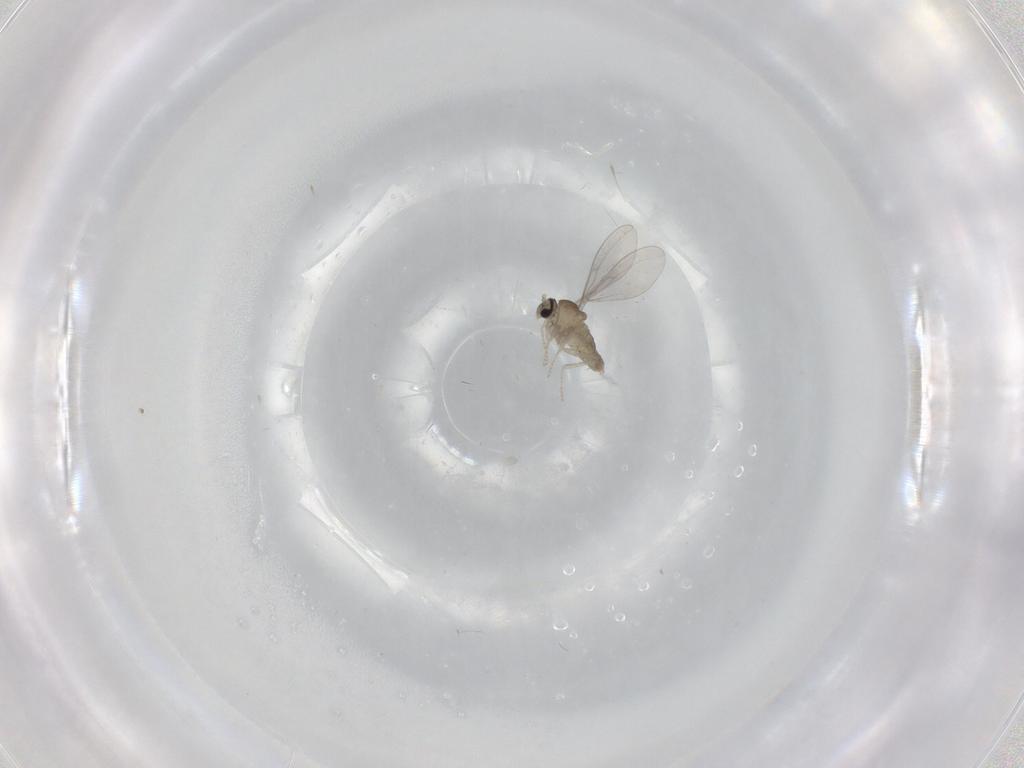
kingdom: Animalia
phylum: Arthropoda
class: Insecta
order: Diptera
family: Cecidomyiidae
